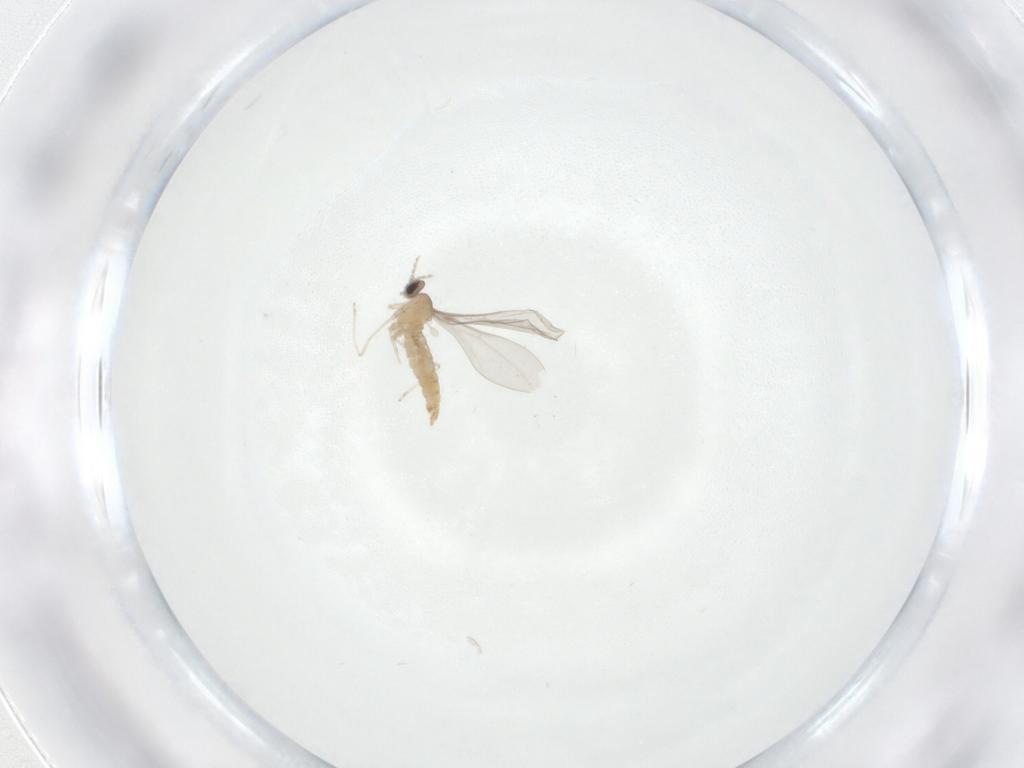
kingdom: Animalia
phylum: Arthropoda
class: Insecta
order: Diptera
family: Cecidomyiidae
